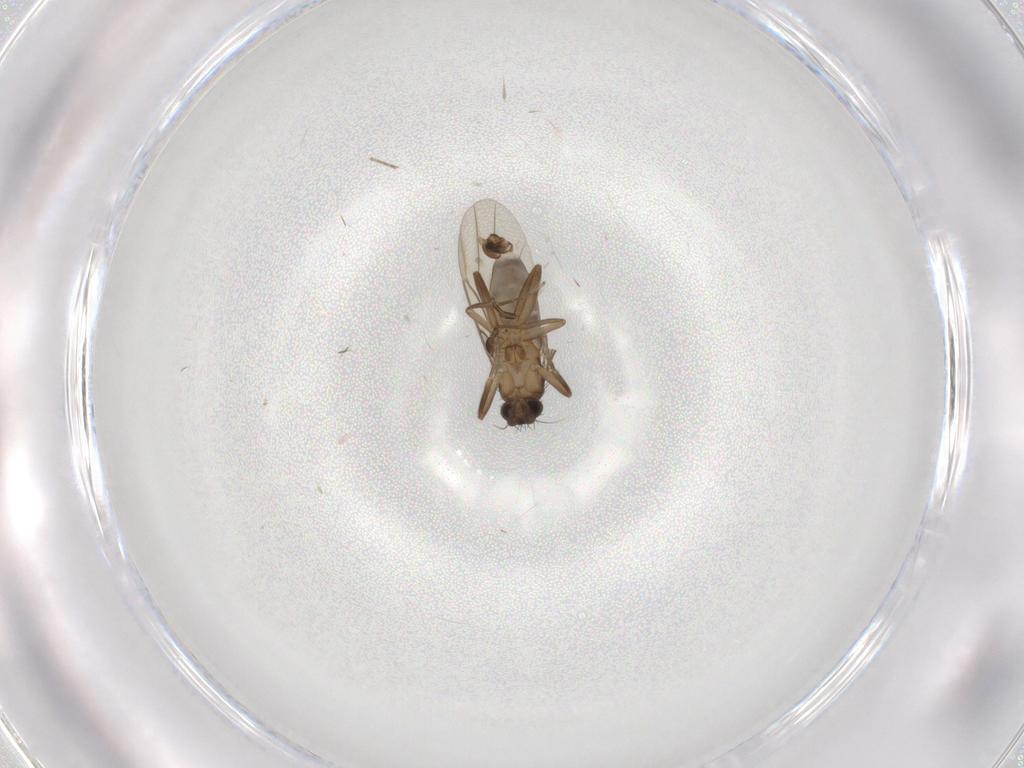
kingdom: Animalia
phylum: Arthropoda
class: Insecta
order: Diptera
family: Phoridae
